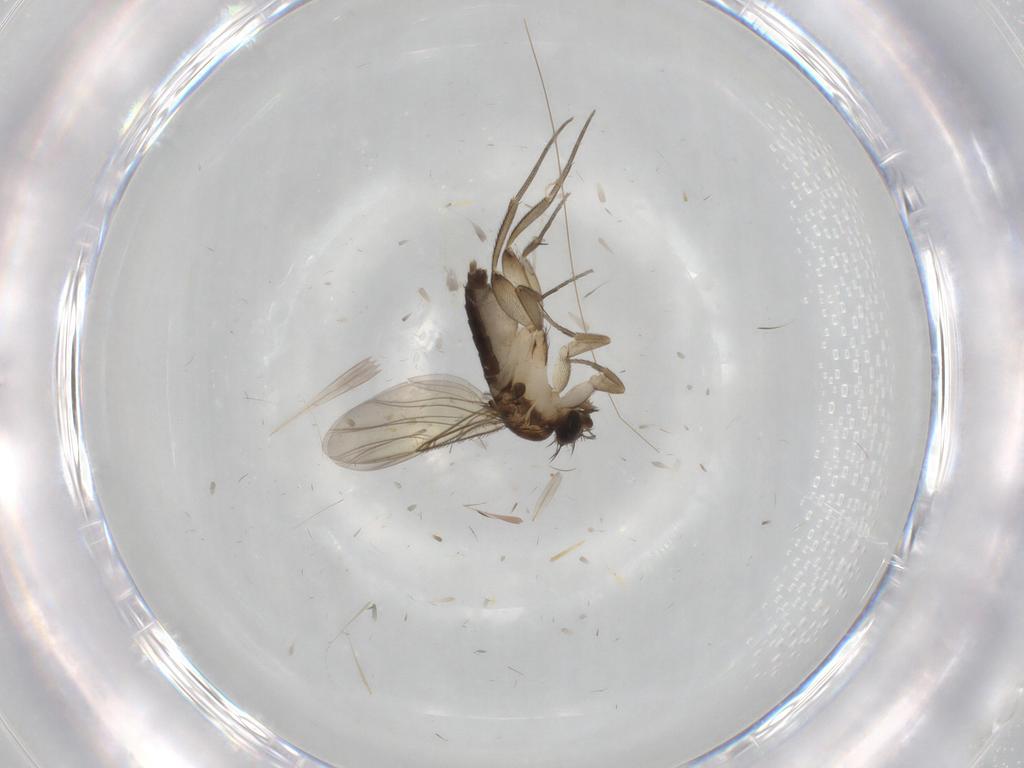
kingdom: Animalia
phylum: Arthropoda
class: Insecta
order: Diptera
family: Phoridae
